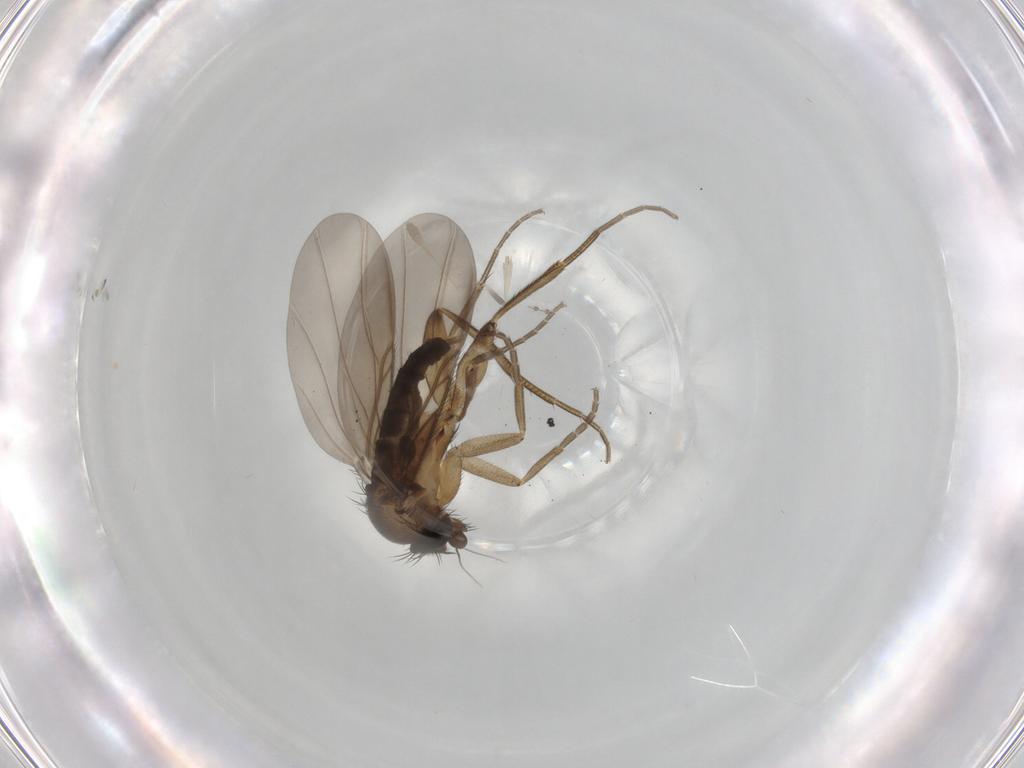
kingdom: Animalia
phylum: Arthropoda
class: Insecta
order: Diptera
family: Phoridae
